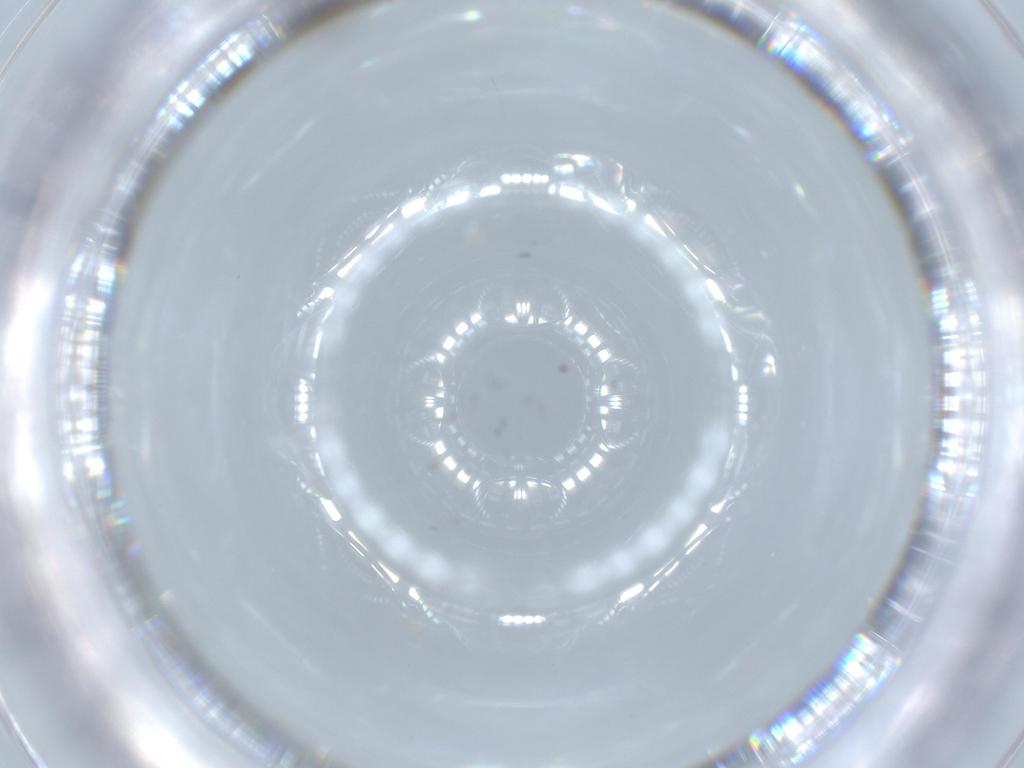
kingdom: Animalia
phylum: Arthropoda
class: Insecta
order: Blattodea
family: Blaberidae
